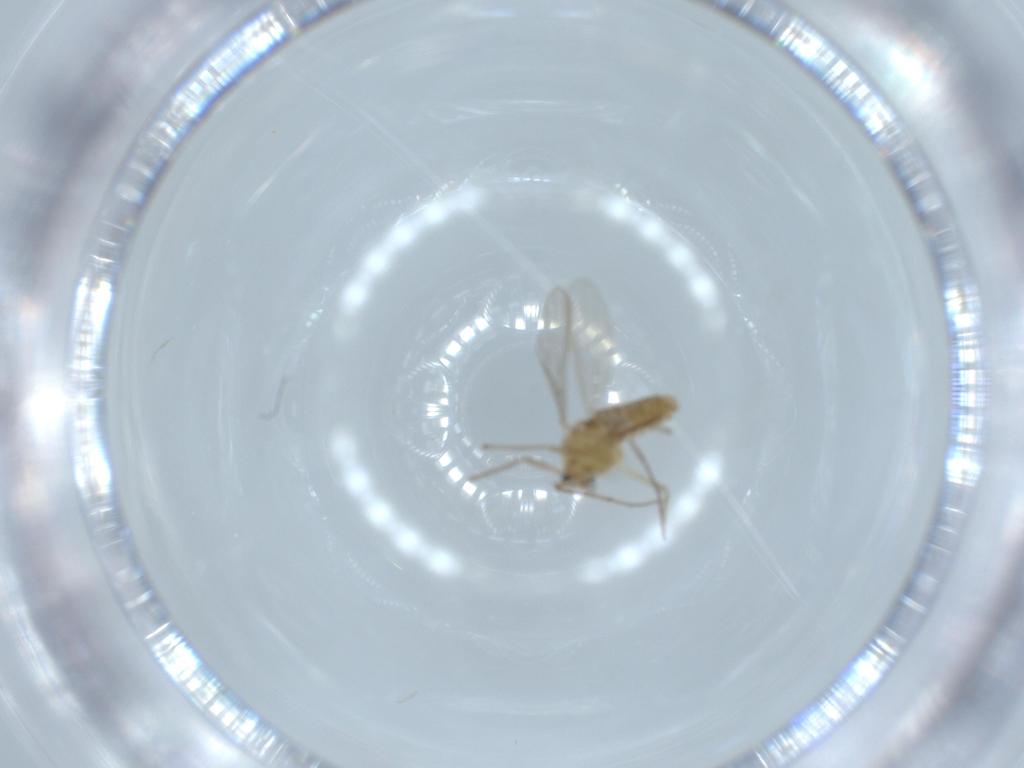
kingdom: Animalia
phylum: Arthropoda
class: Insecta
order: Diptera
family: Chironomidae
